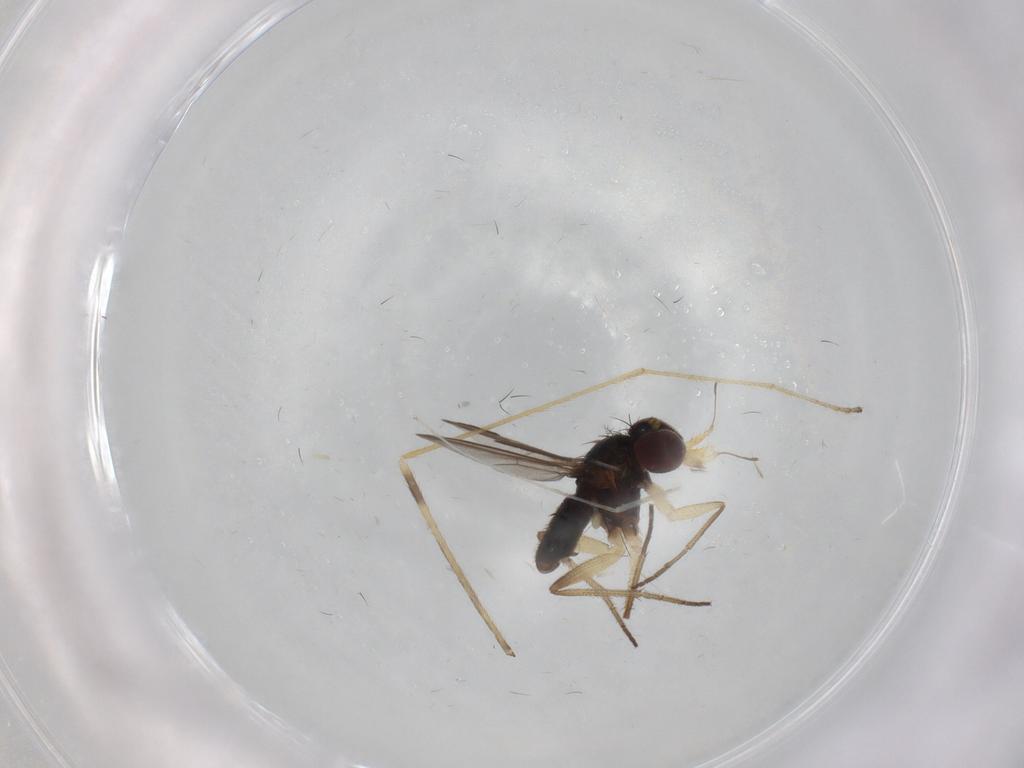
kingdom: Animalia
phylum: Arthropoda
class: Insecta
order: Diptera
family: Dolichopodidae
